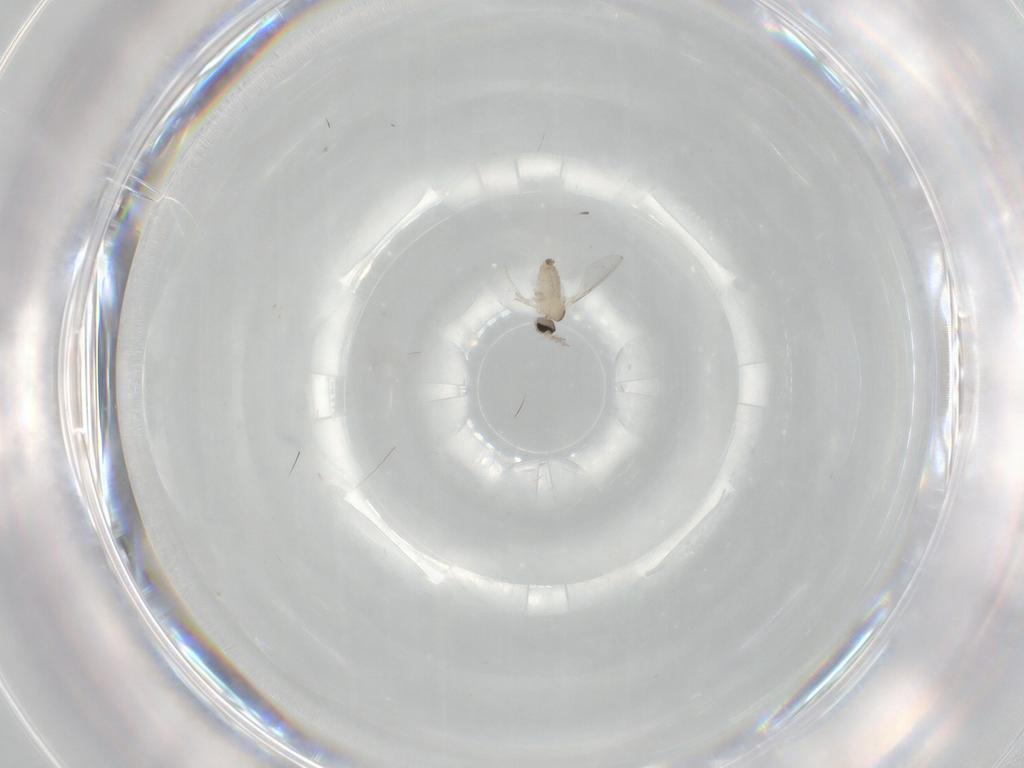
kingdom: Animalia
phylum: Arthropoda
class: Insecta
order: Diptera
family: Cecidomyiidae
